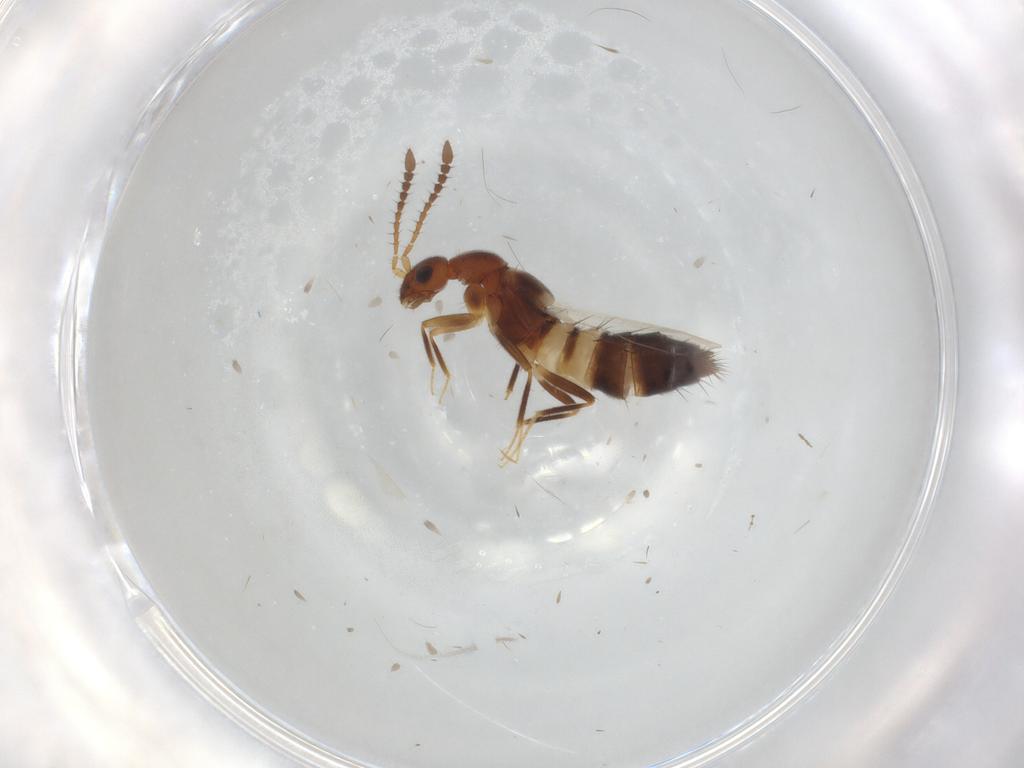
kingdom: Animalia
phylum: Arthropoda
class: Insecta
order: Coleoptera
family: Staphylinidae
